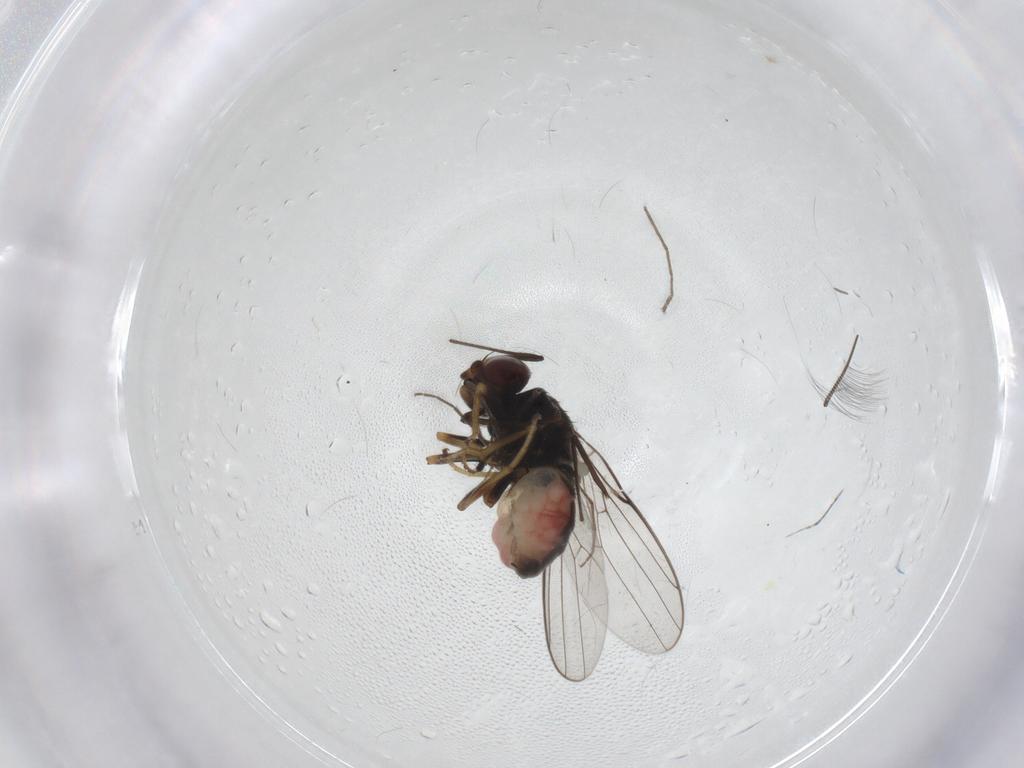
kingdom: Animalia
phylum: Arthropoda
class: Insecta
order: Diptera
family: Chloropidae
